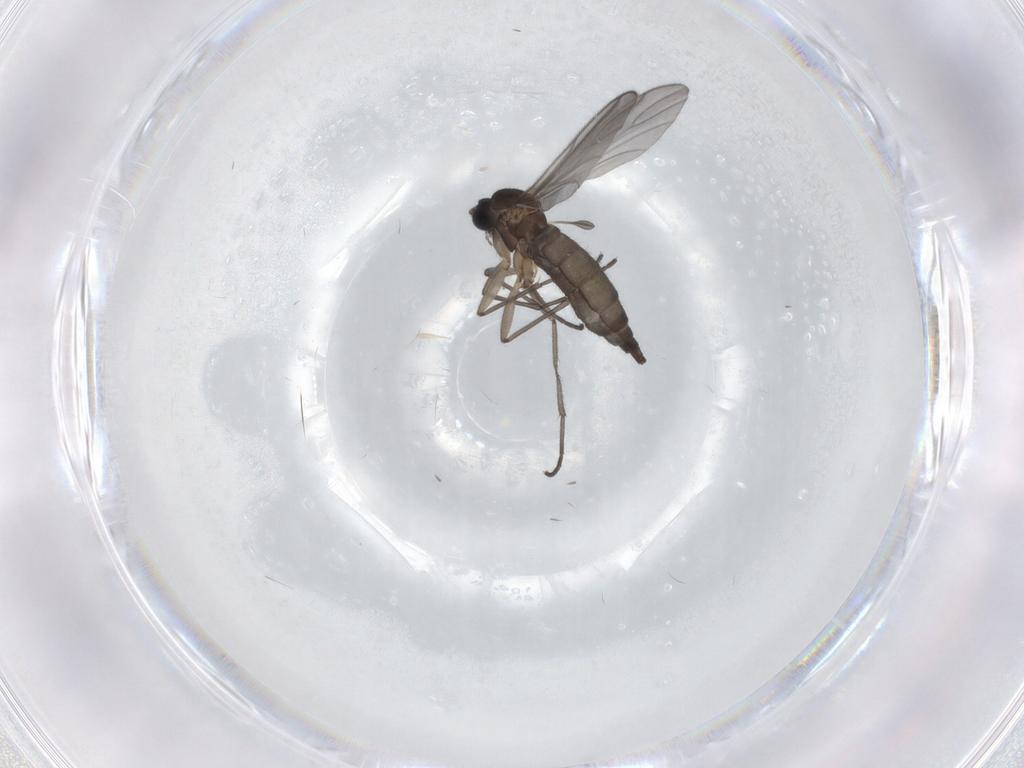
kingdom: Animalia
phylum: Arthropoda
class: Insecta
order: Diptera
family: Sciaridae
